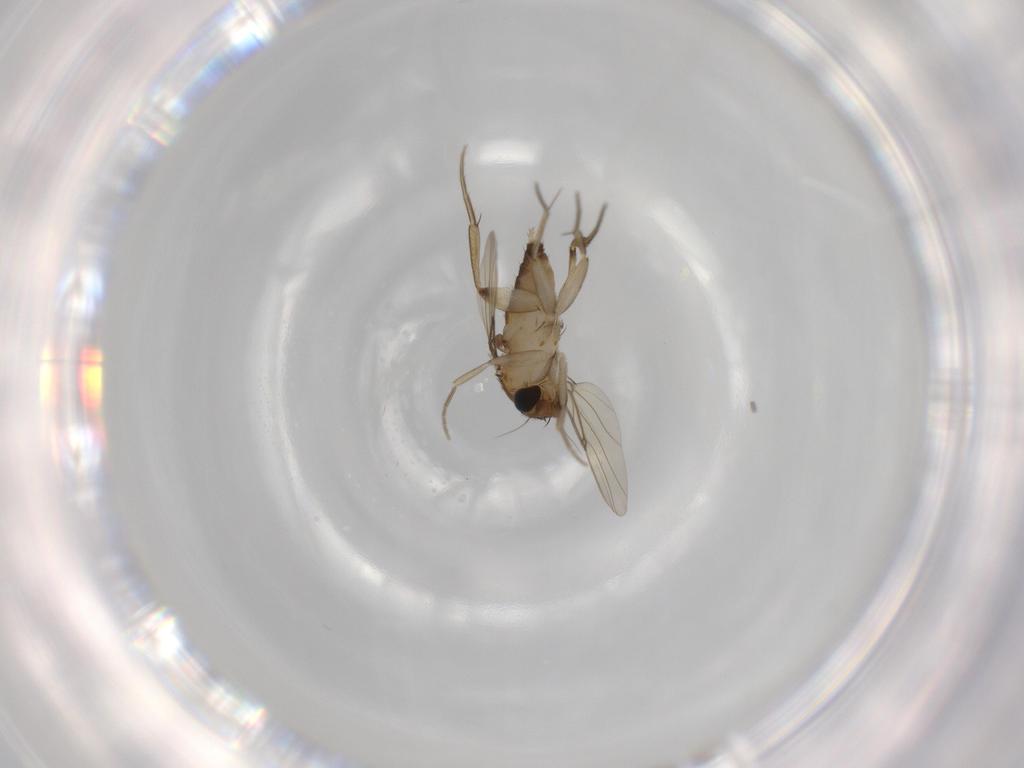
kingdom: Animalia
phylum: Arthropoda
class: Insecta
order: Diptera
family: Phoridae
